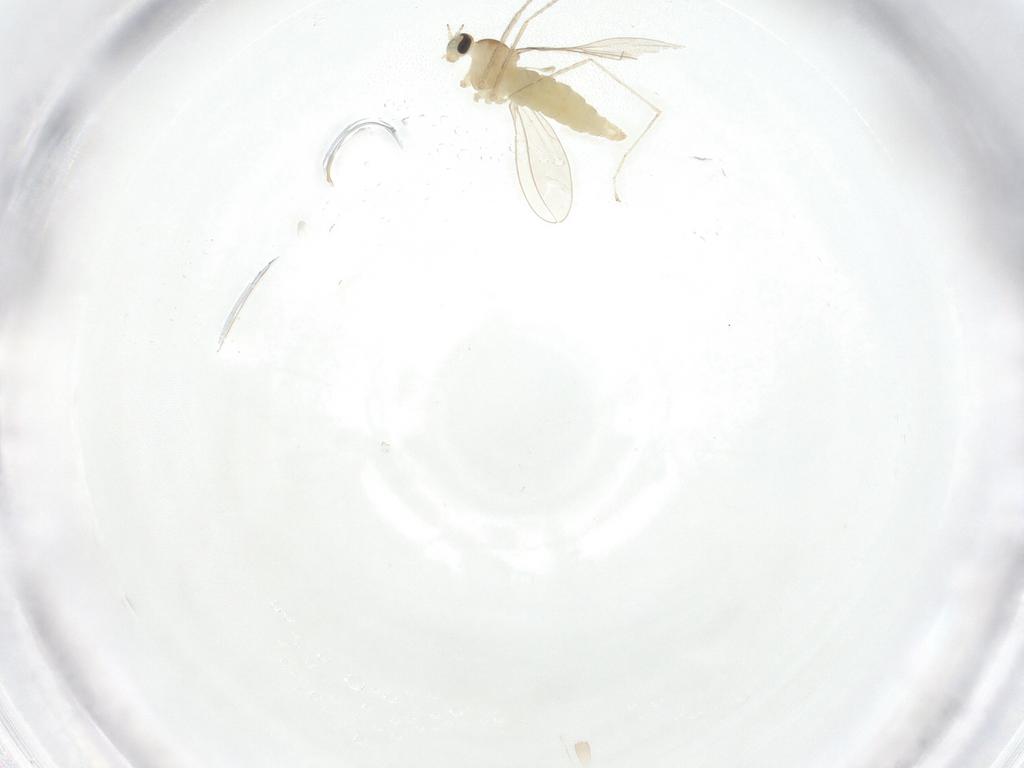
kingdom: Animalia
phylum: Arthropoda
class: Insecta
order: Diptera
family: Cecidomyiidae
